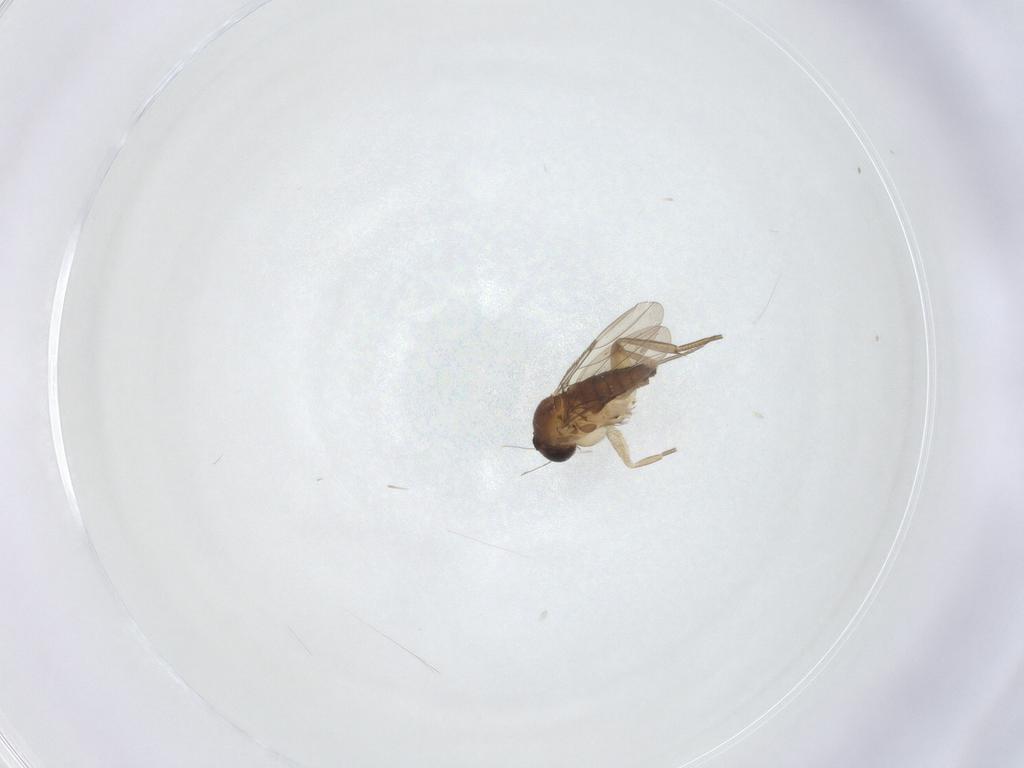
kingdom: Animalia
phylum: Arthropoda
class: Insecta
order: Diptera
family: Phoridae
